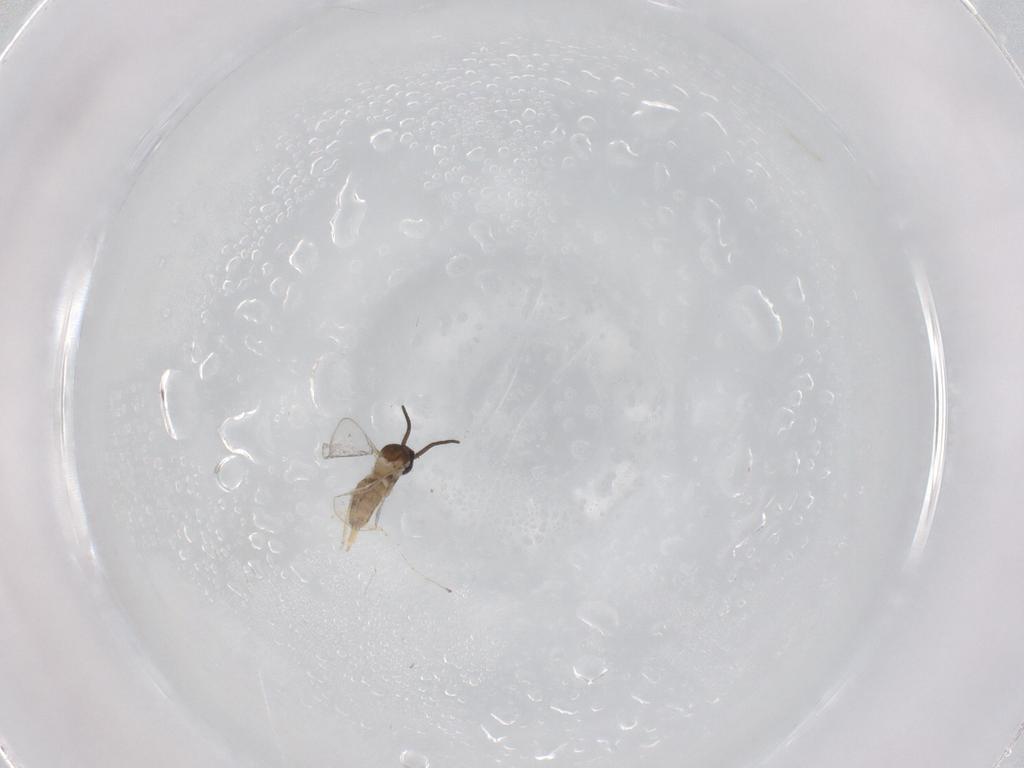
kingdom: Animalia
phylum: Arthropoda
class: Insecta
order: Diptera
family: Cecidomyiidae
